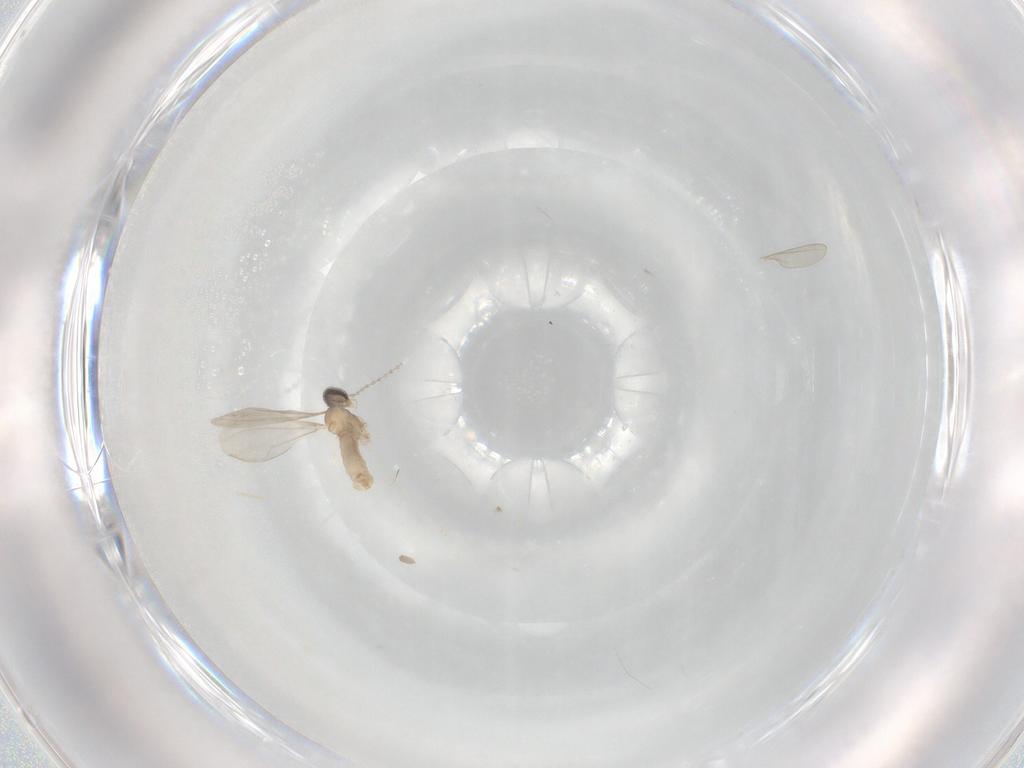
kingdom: Animalia
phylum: Arthropoda
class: Insecta
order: Diptera
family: Cecidomyiidae
